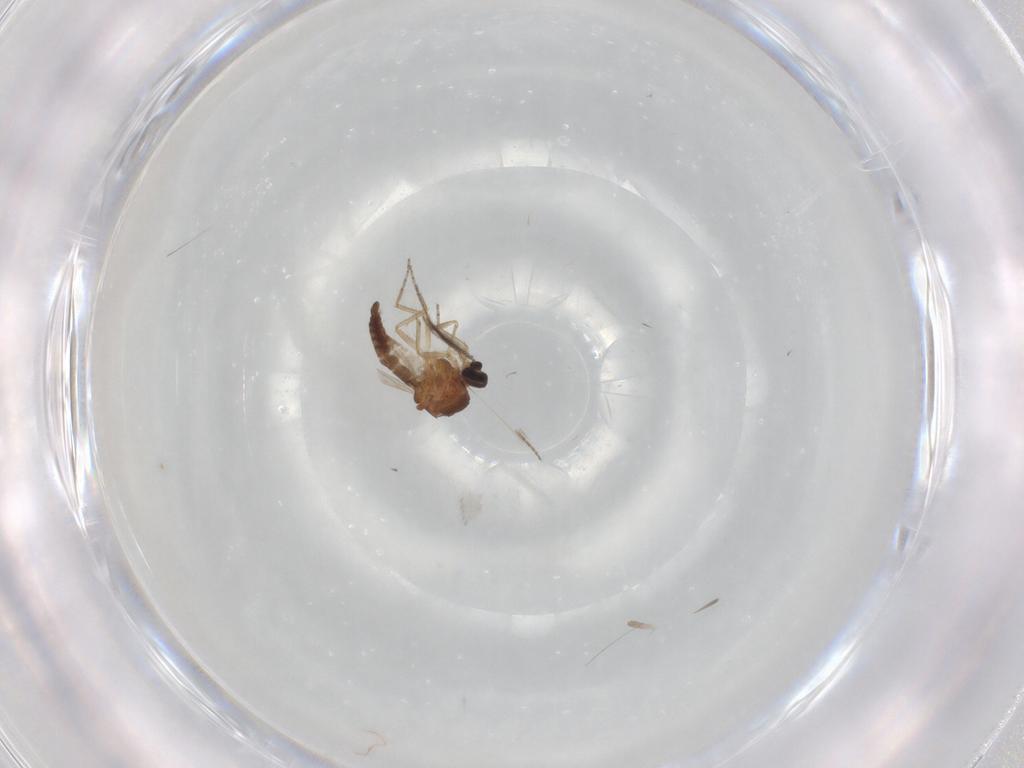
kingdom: Animalia
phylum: Arthropoda
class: Insecta
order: Diptera
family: Ceratopogonidae
